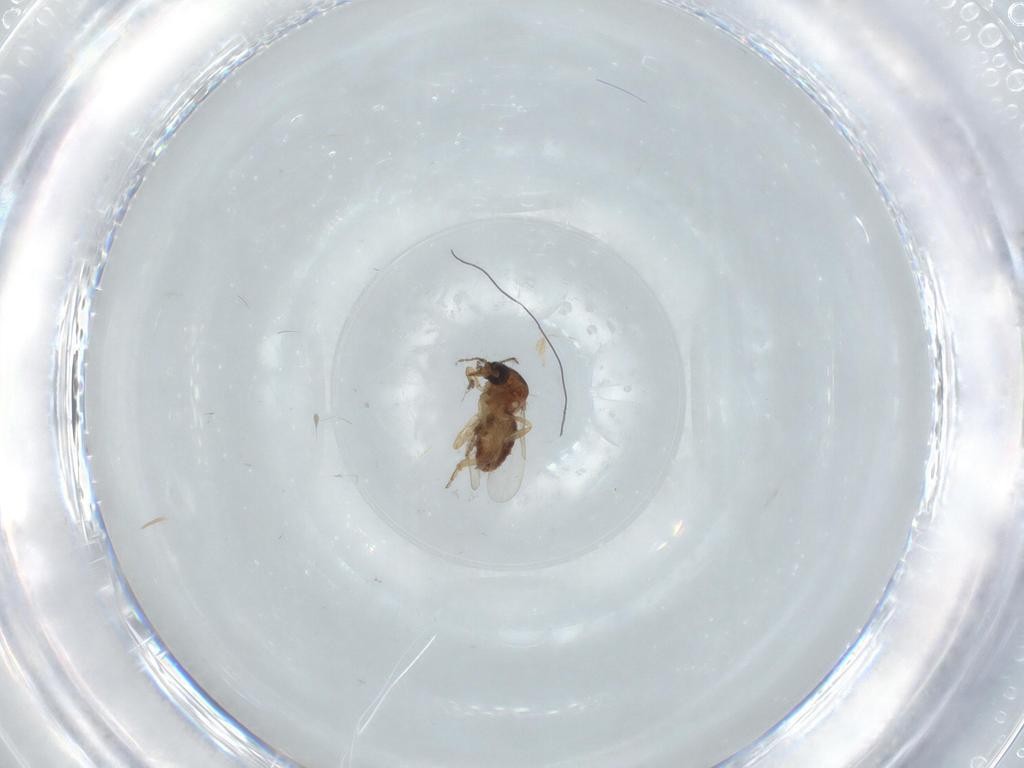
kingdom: Animalia
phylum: Arthropoda
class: Insecta
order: Diptera
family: Ceratopogonidae
